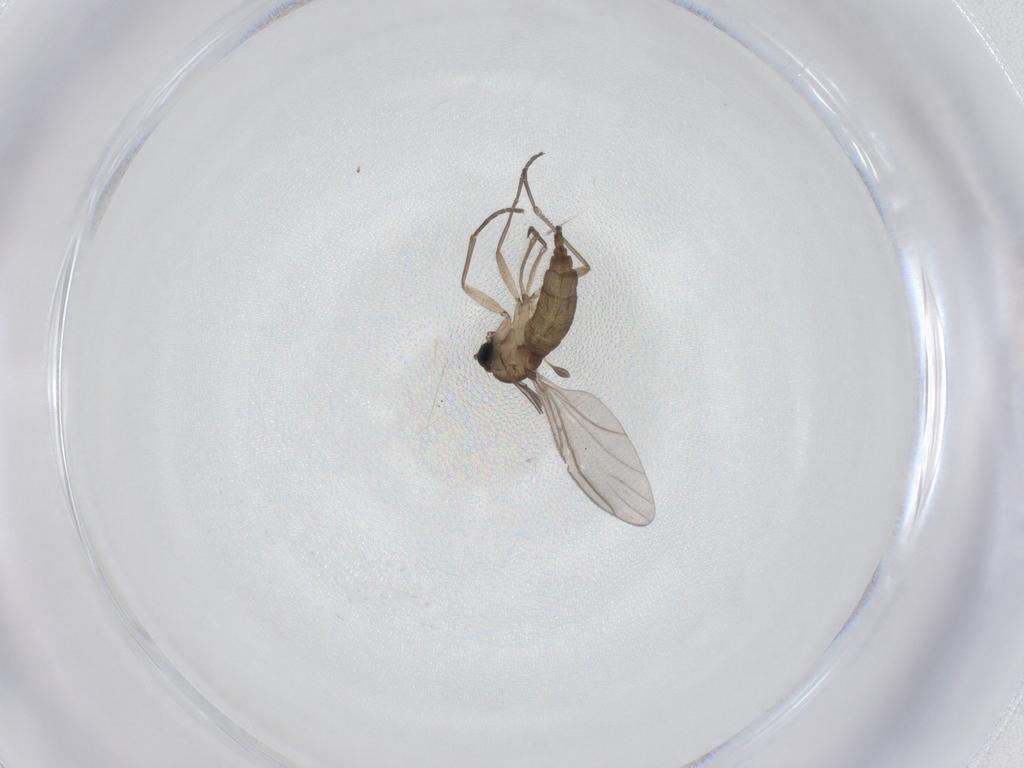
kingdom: Animalia
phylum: Arthropoda
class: Insecta
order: Diptera
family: Sciaridae
